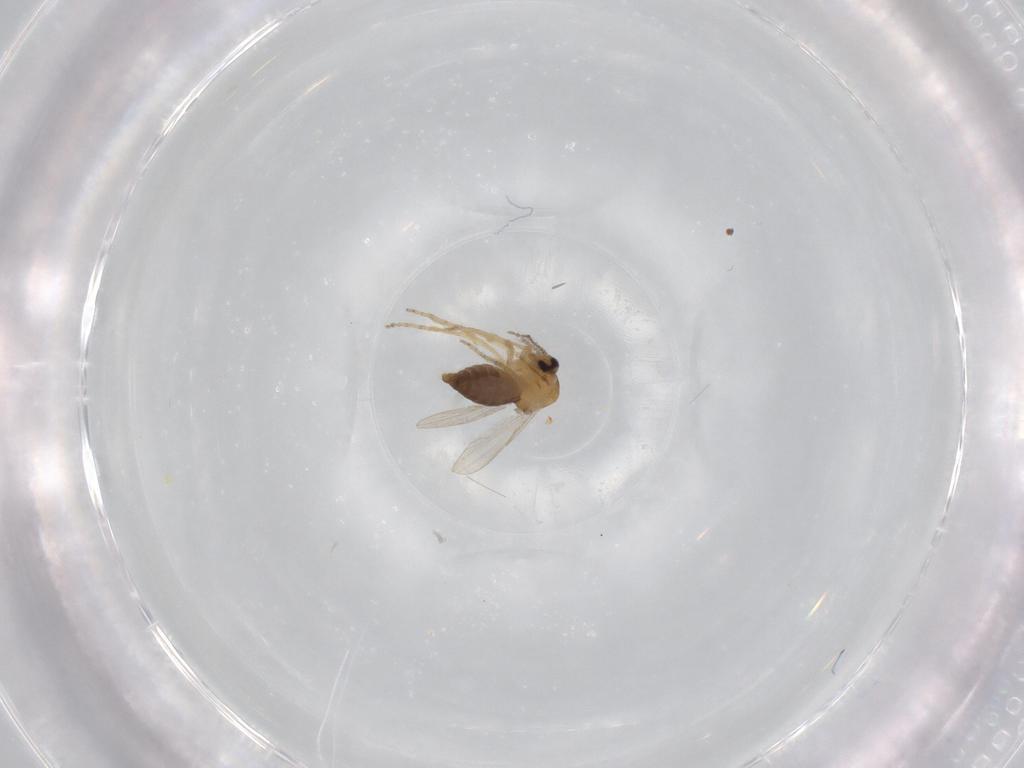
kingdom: Animalia
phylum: Arthropoda
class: Insecta
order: Diptera
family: Ceratopogonidae
